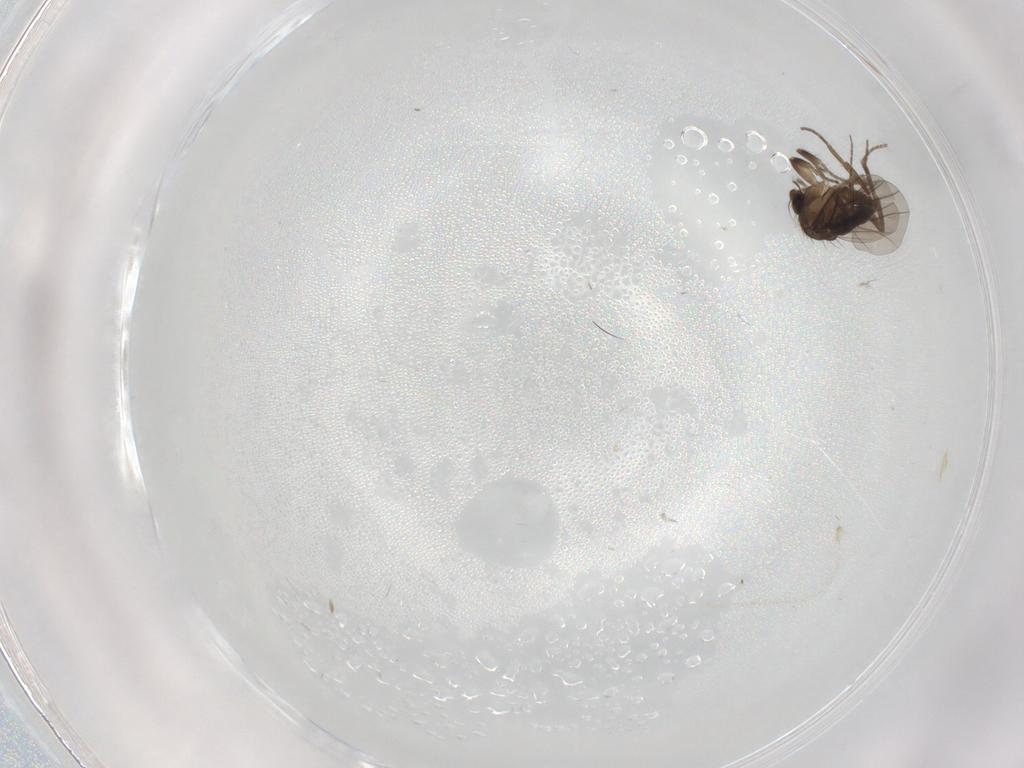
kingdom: Animalia
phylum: Arthropoda
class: Insecta
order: Diptera
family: Phoridae
